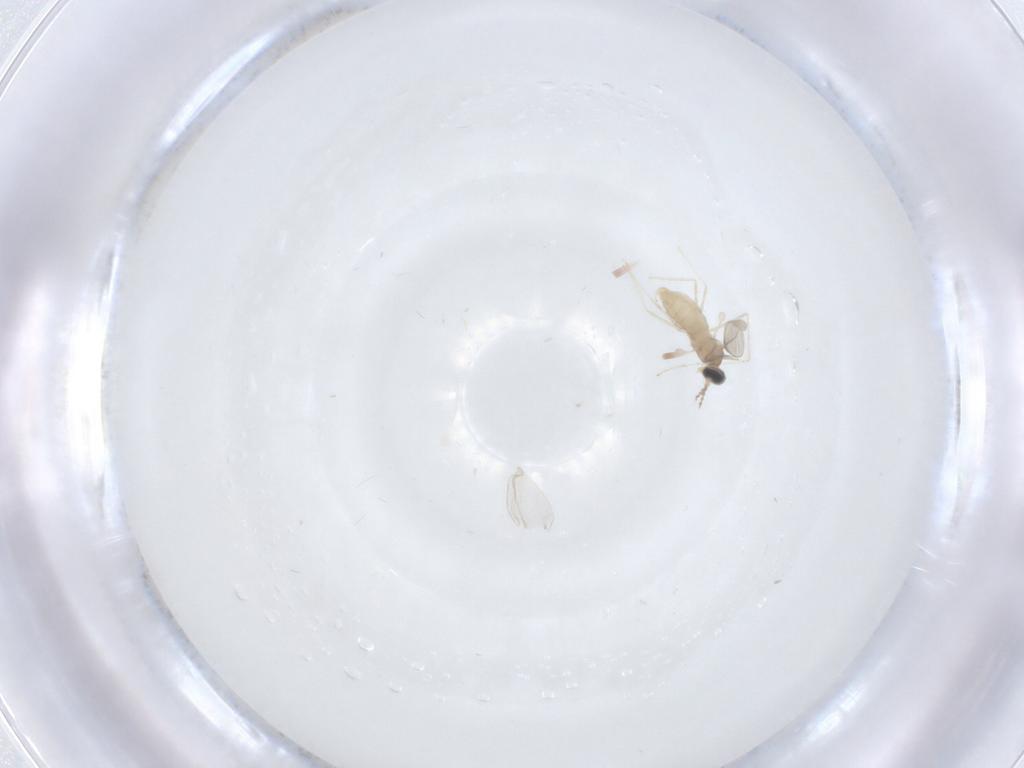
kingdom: Animalia
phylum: Arthropoda
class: Insecta
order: Diptera
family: Cecidomyiidae
